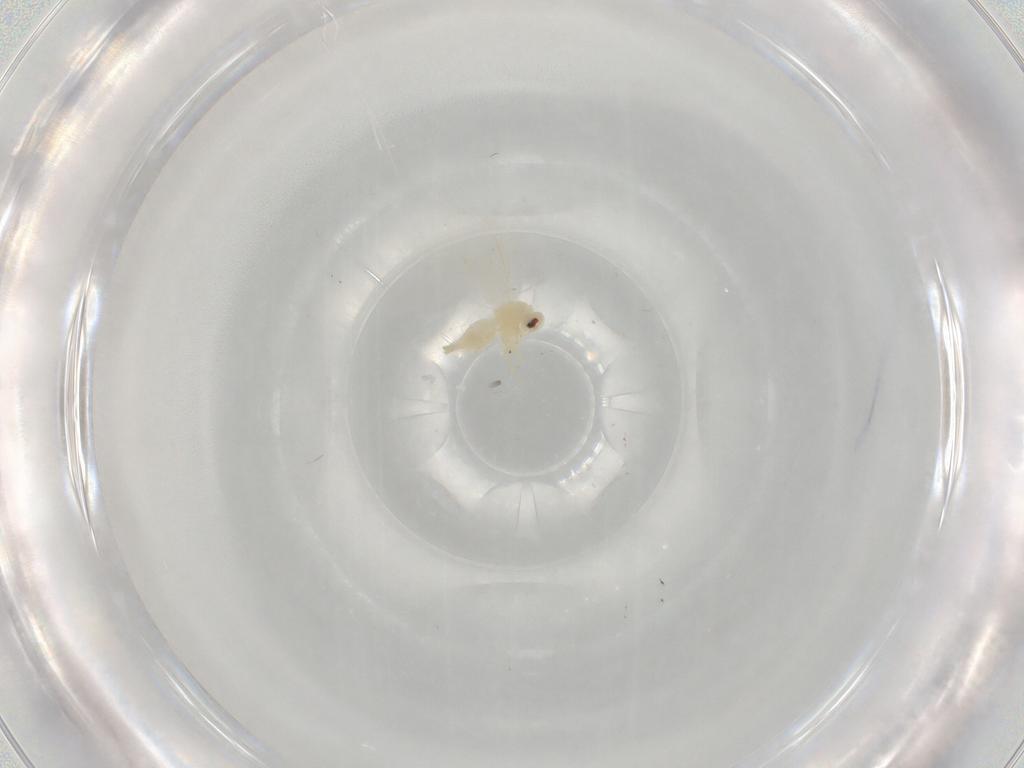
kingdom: Animalia
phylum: Arthropoda
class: Insecta
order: Hemiptera
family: Aleyrodidae
